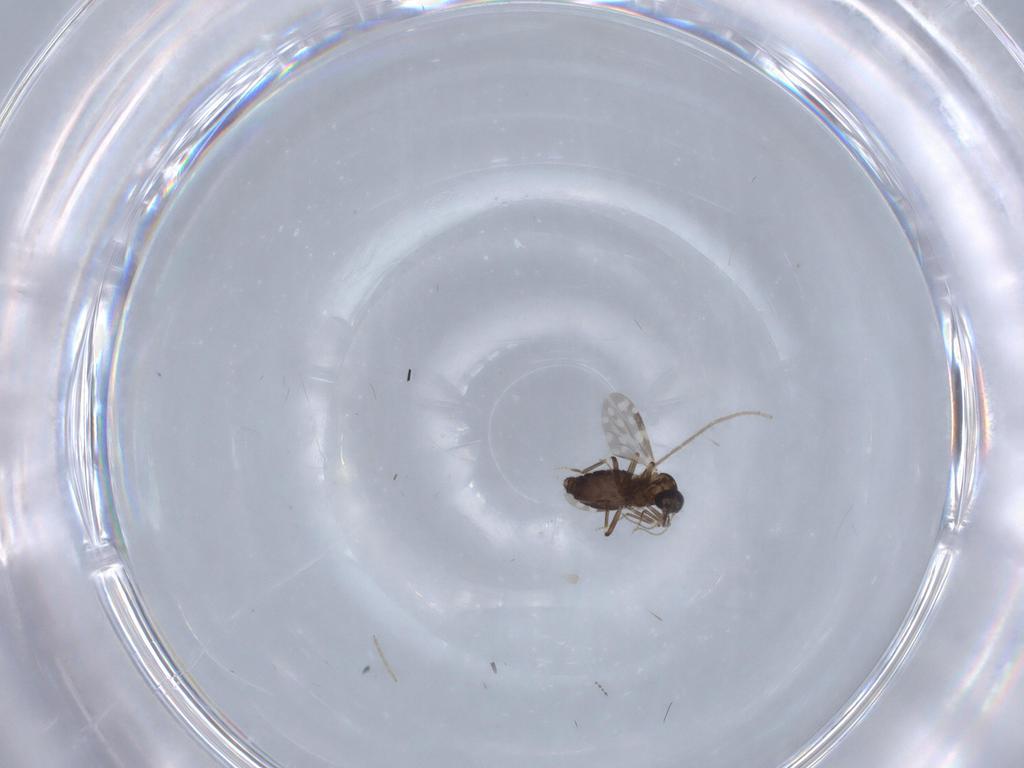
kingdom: Animalia
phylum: Arthropoda
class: Insecta
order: Diptera
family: Chironomidae
